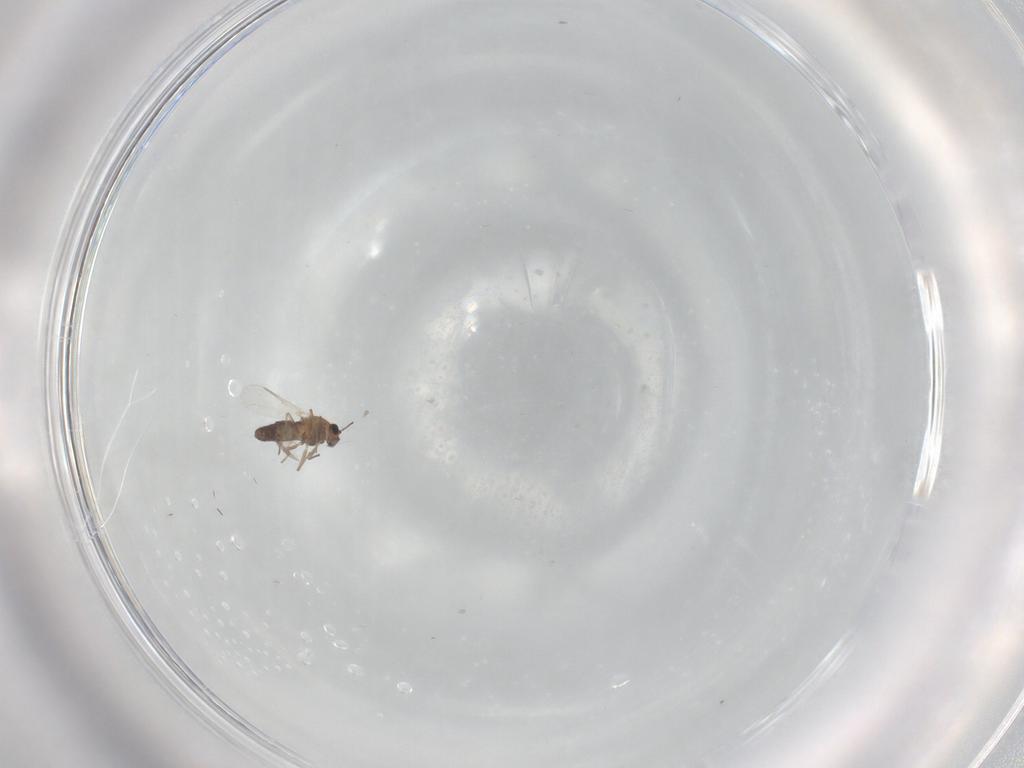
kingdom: Animalia
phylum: Arthropoda
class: Insecta
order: Diptera
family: Chironomidae
